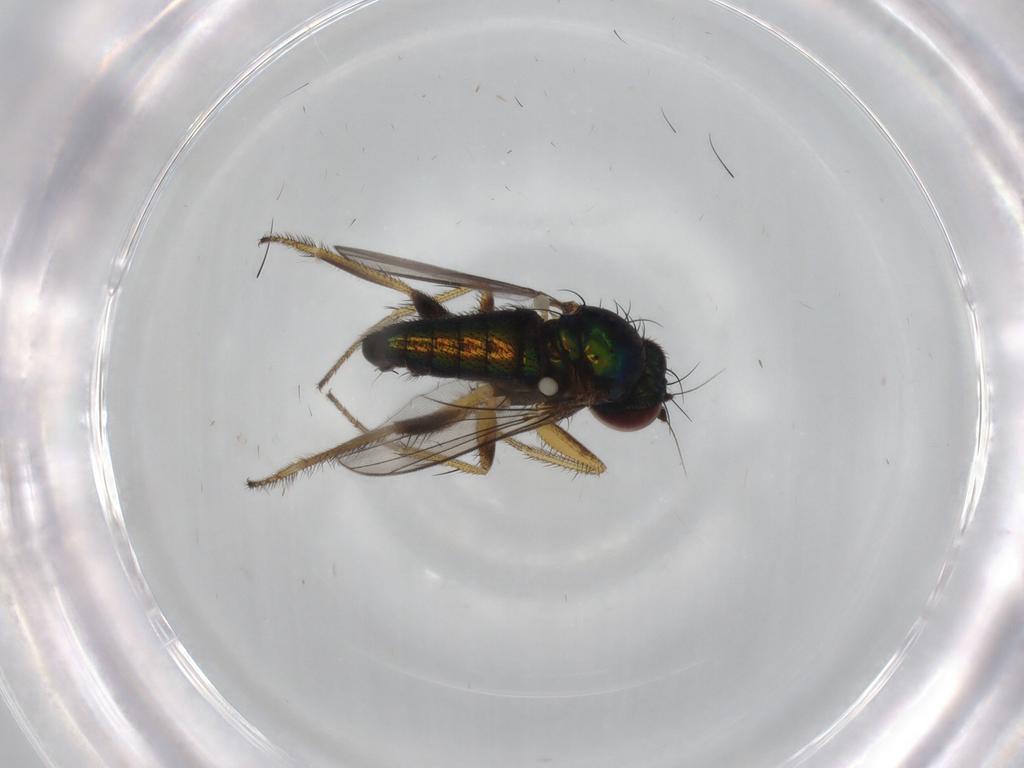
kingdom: Animalia
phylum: Arthropoda
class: Insecta
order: Diptera
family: Dolichopodidae
